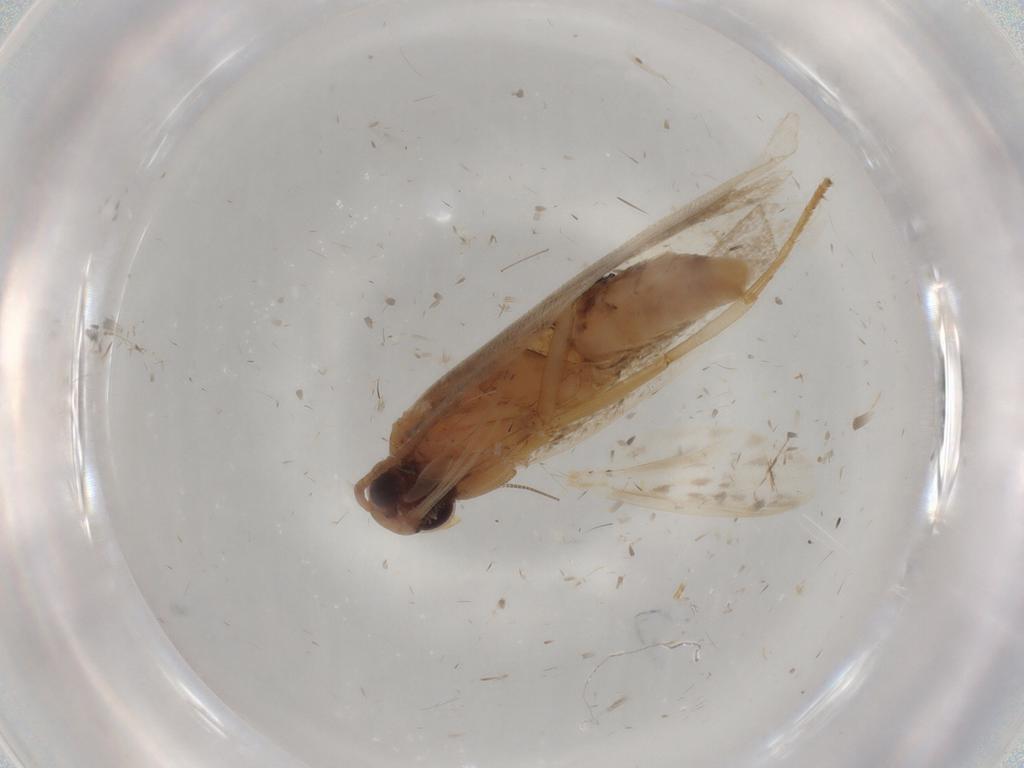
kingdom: Animalia
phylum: Arthropoda
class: Insecta
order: Lepidoptera
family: Gelechiidae
